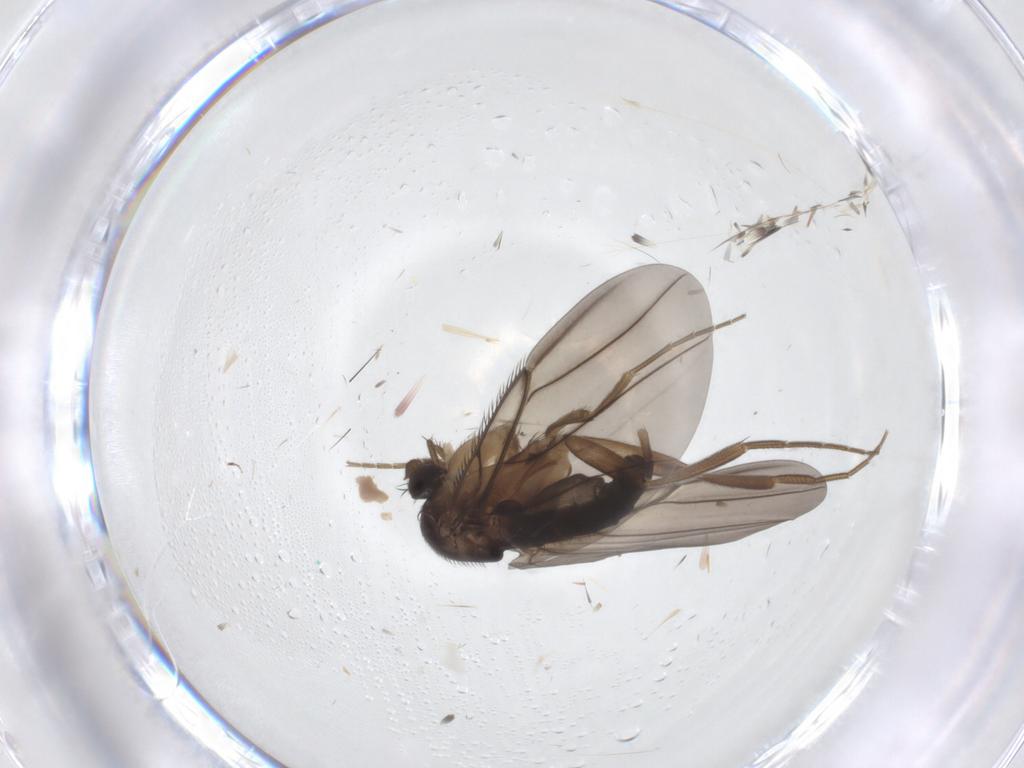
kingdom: Animalia
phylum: Arthropoda
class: Insecta
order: Diptera
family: Phoridae
